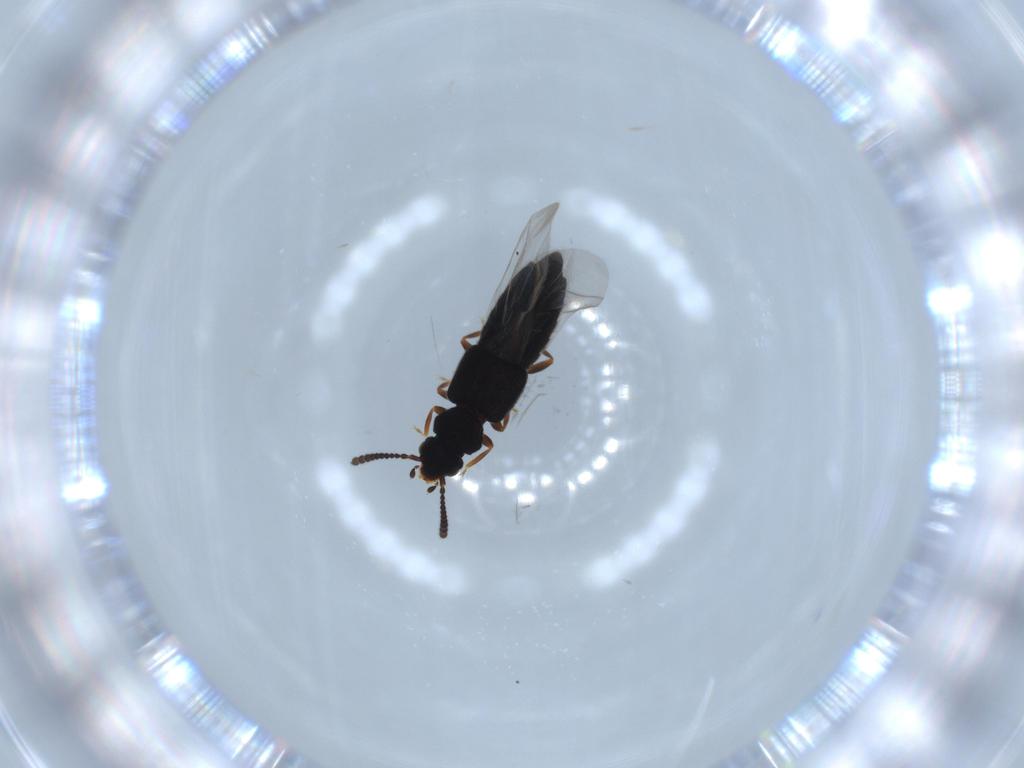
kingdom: Animalia
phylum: Arthropoda
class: Insecta
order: Coleoptera
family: Staphylinidae
